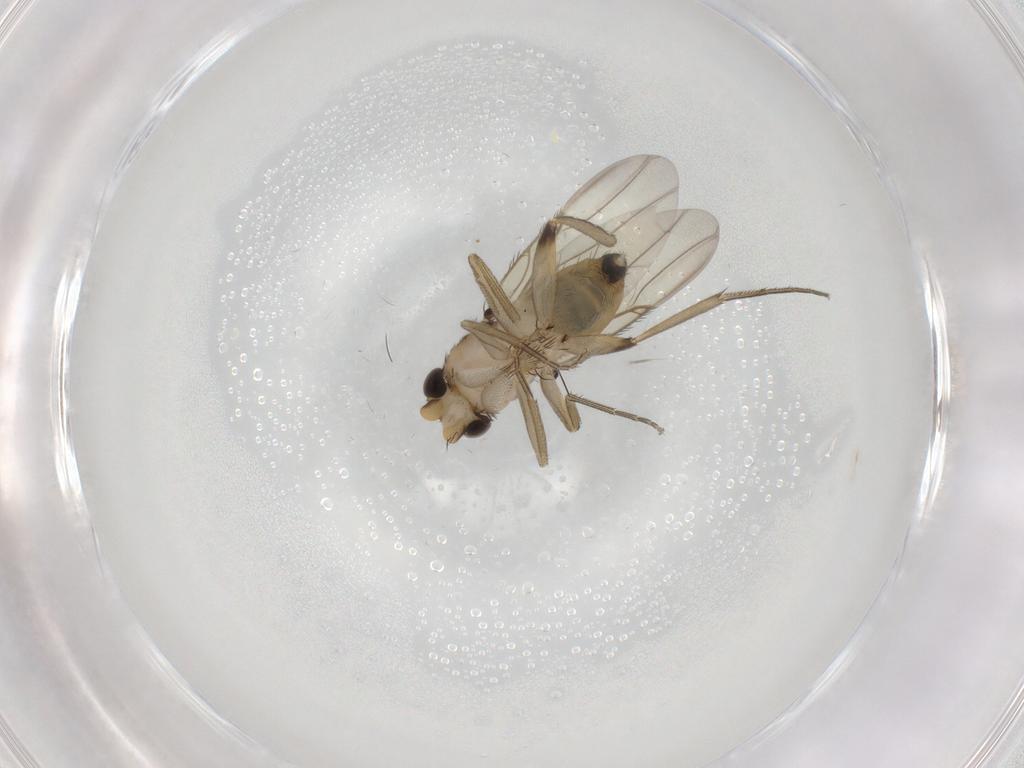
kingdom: Animalia
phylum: Arthropoda
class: Insecta
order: Diptera
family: Phoridae
